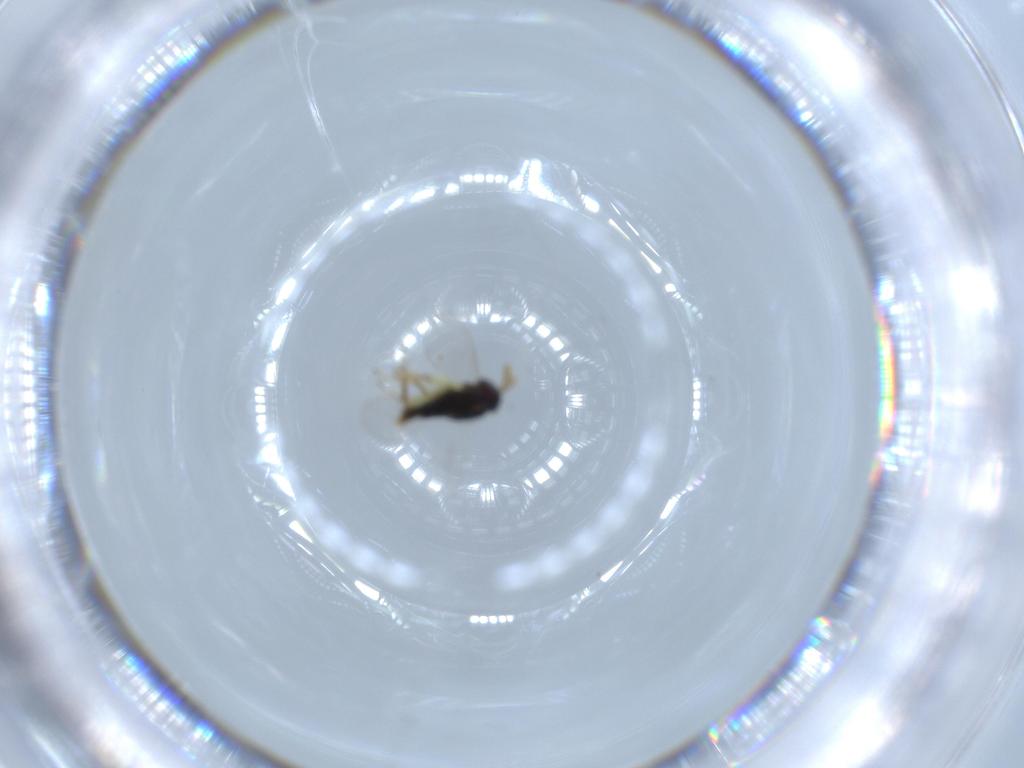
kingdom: Animalia
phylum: Arthropoda
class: Insecta
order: Hymenoptera
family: Aphelinidae
